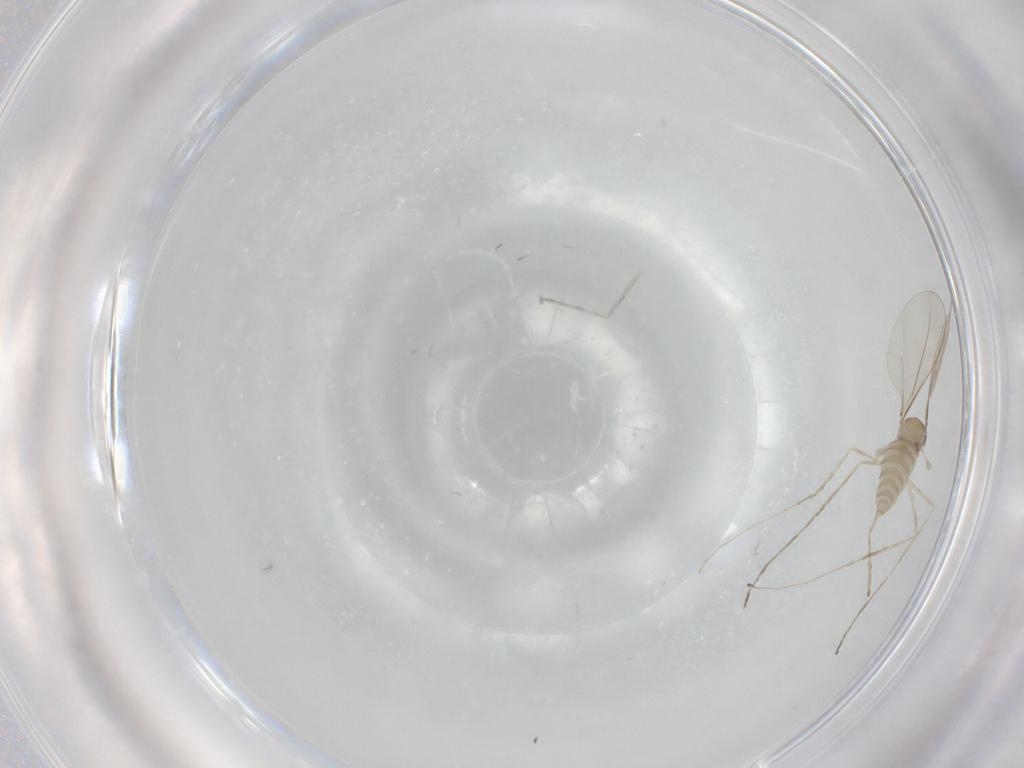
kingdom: Animalia
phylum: Arthropoda
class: Insecta
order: Diptera
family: Cecidomyiidae
